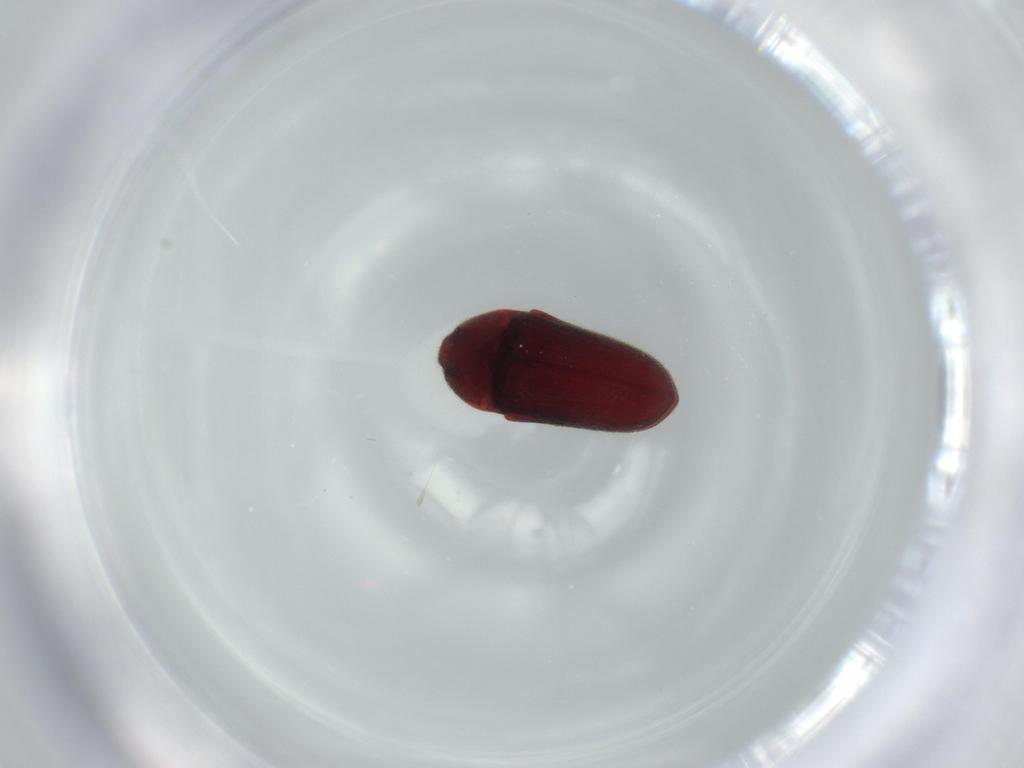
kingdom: Animalia
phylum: Arthropoda
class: Insecta
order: Coleoptera
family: Throscidae
